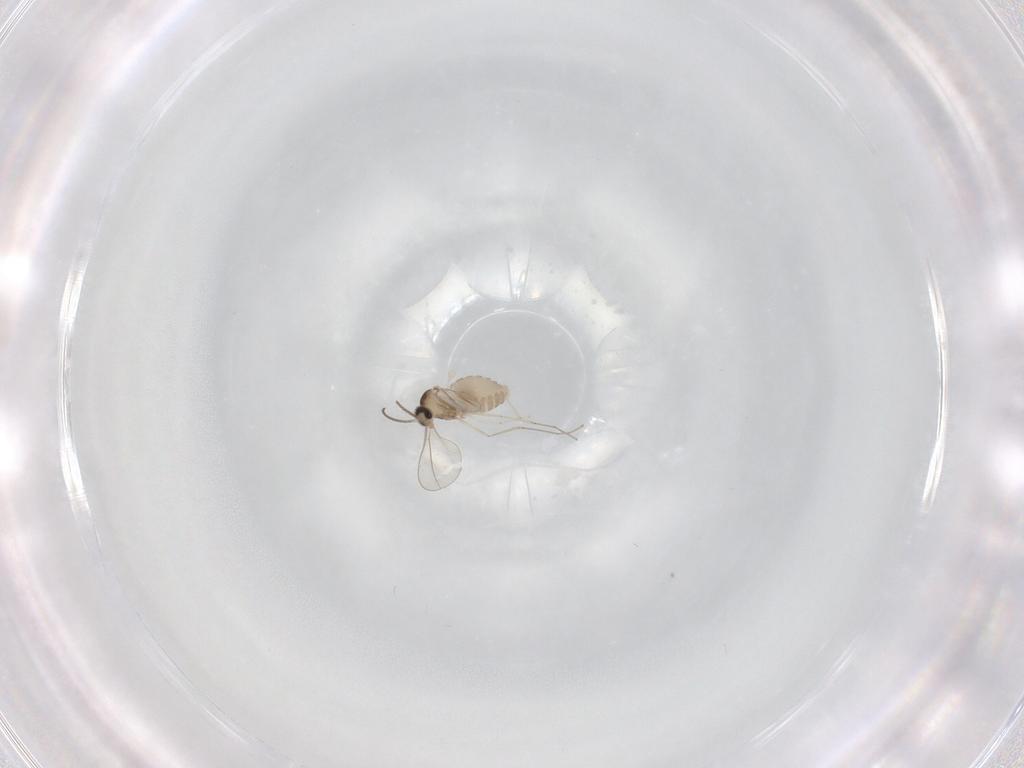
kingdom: Animalia
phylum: Arthropoda
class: Insecta
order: Diptera
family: Cecidomyiidae
